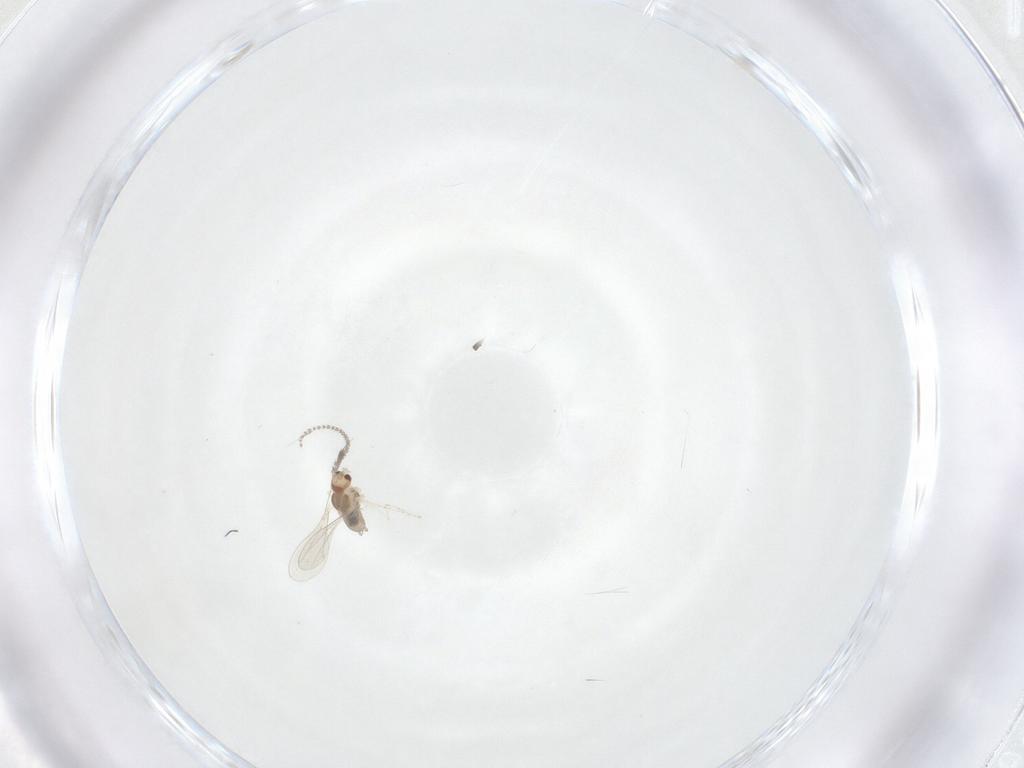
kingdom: Animalia
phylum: Arthropoda
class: Insecta
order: Diptera
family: Cecidomyiidae
